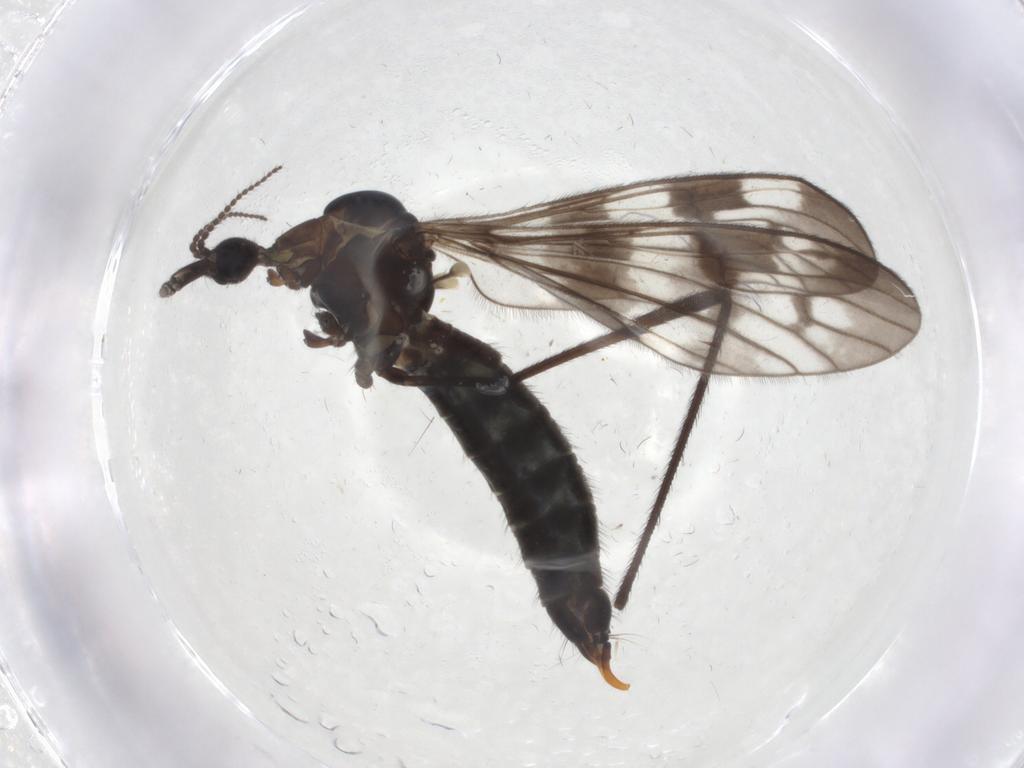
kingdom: Animalia
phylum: Arthropoda
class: Insecta
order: Diptera
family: Limoniidae
